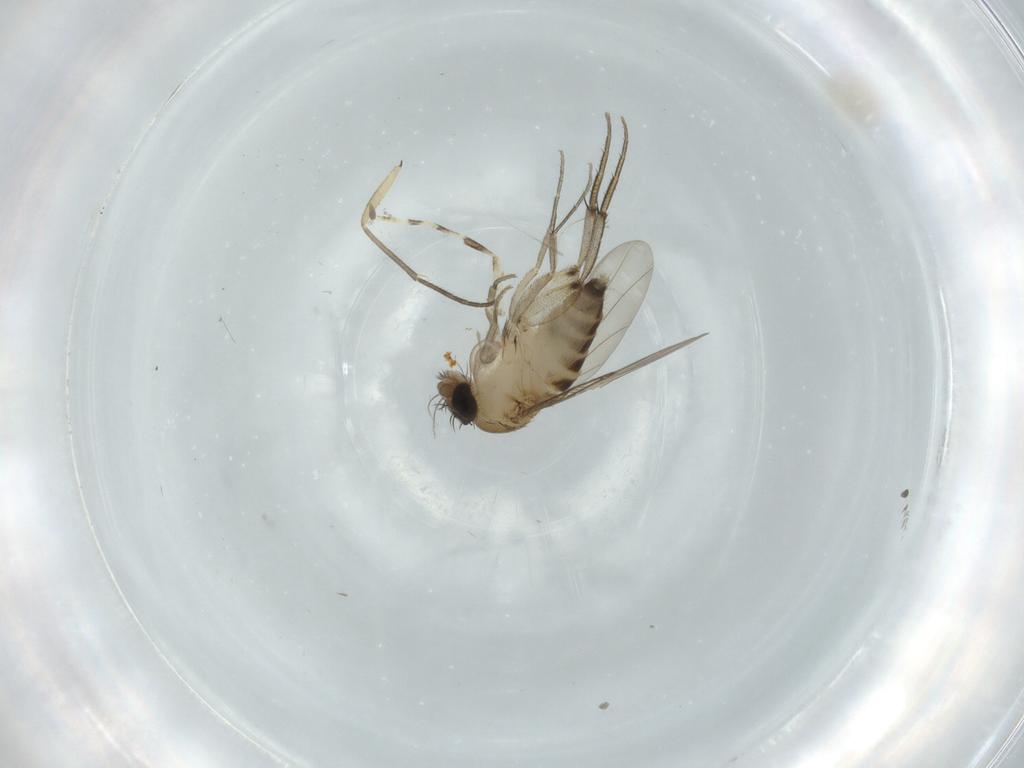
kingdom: Animalia
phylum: Arthropoda
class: Insecta
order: Diptera
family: Phoridae
